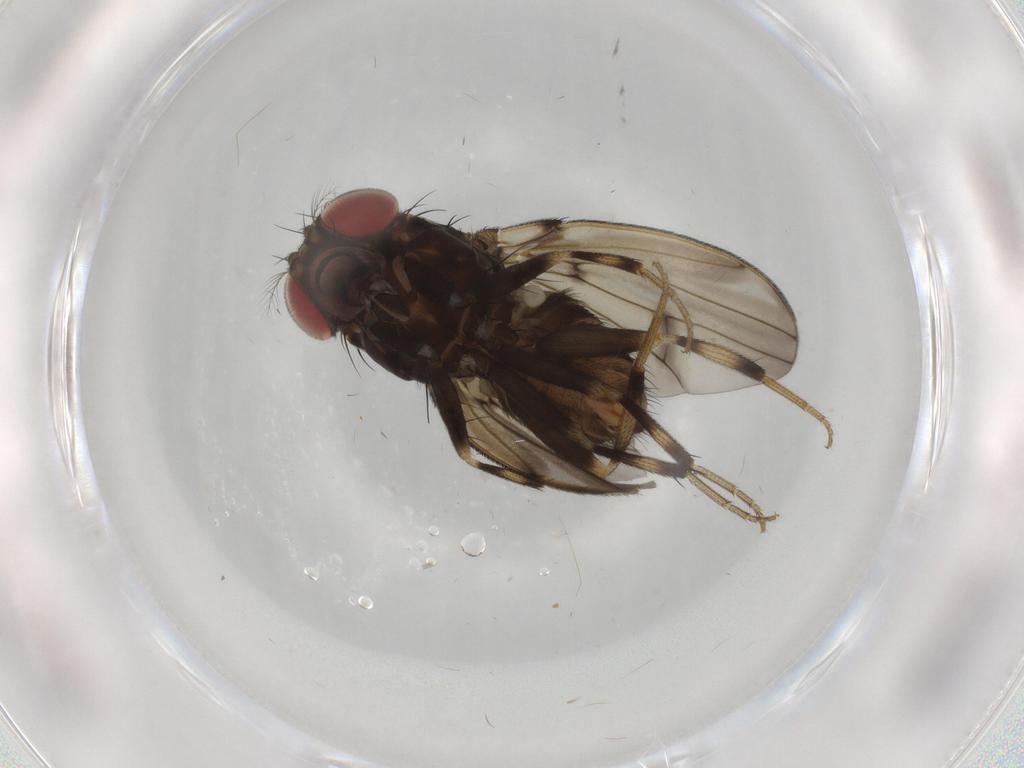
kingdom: Animalia
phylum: Arthropoda
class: Insecta
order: Diptera
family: Drosophilidae
